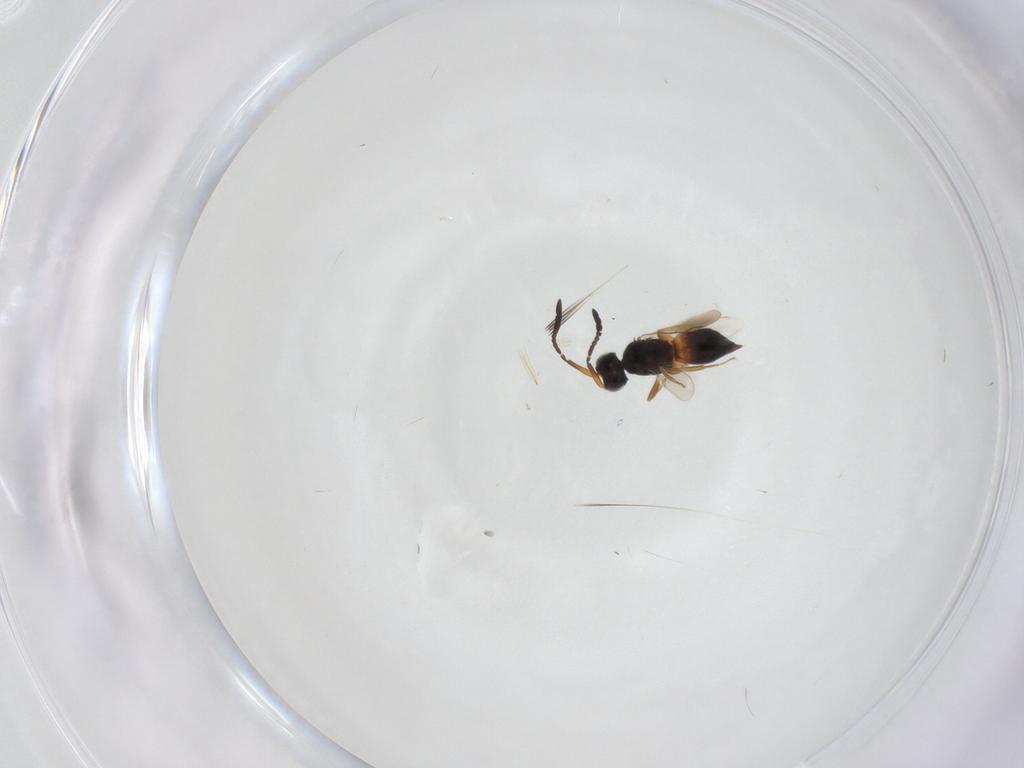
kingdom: Animalia
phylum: Arthropoda
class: Insecta
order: Hymenoptera
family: Ceraphronidae
